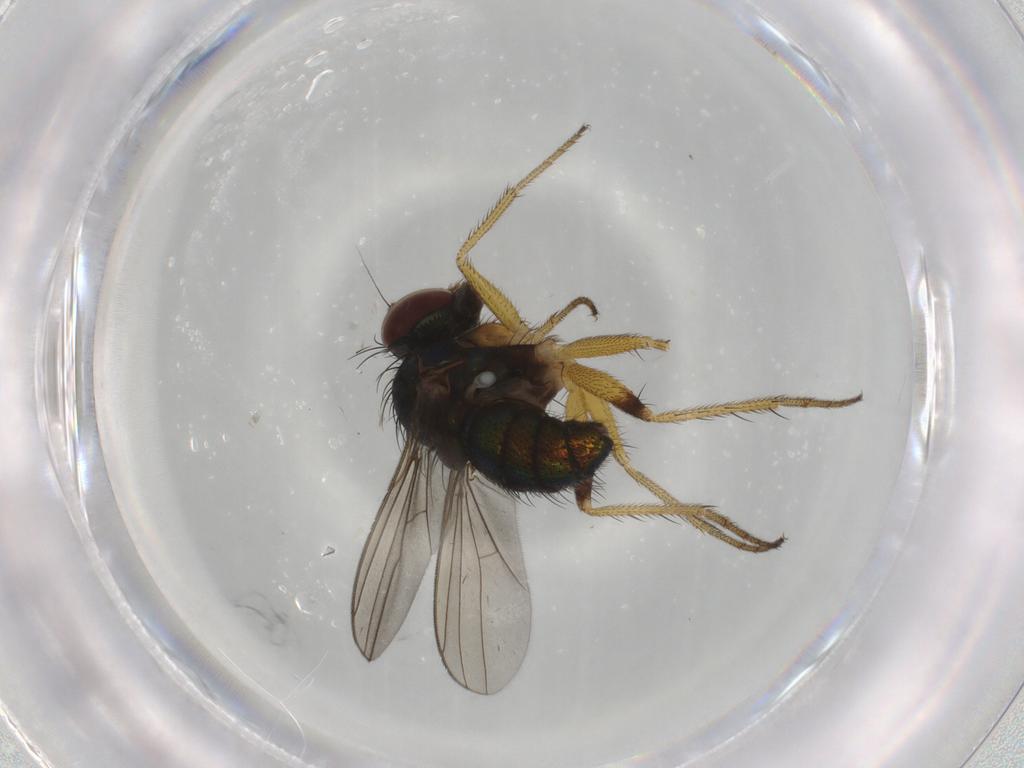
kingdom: Animalia
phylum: Arthropoda
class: Insecta
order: Diptera
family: Dolichopodidae
